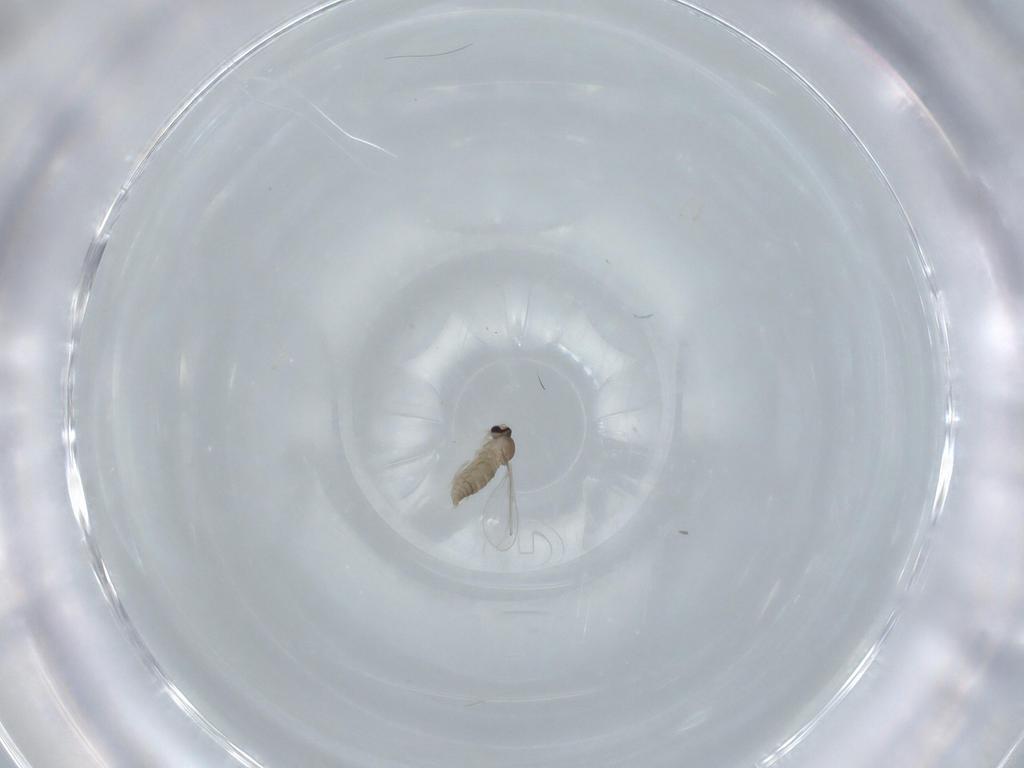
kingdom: Animalia
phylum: Arthropoda
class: Insecta
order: Diptera
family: Cecidomyiidae
